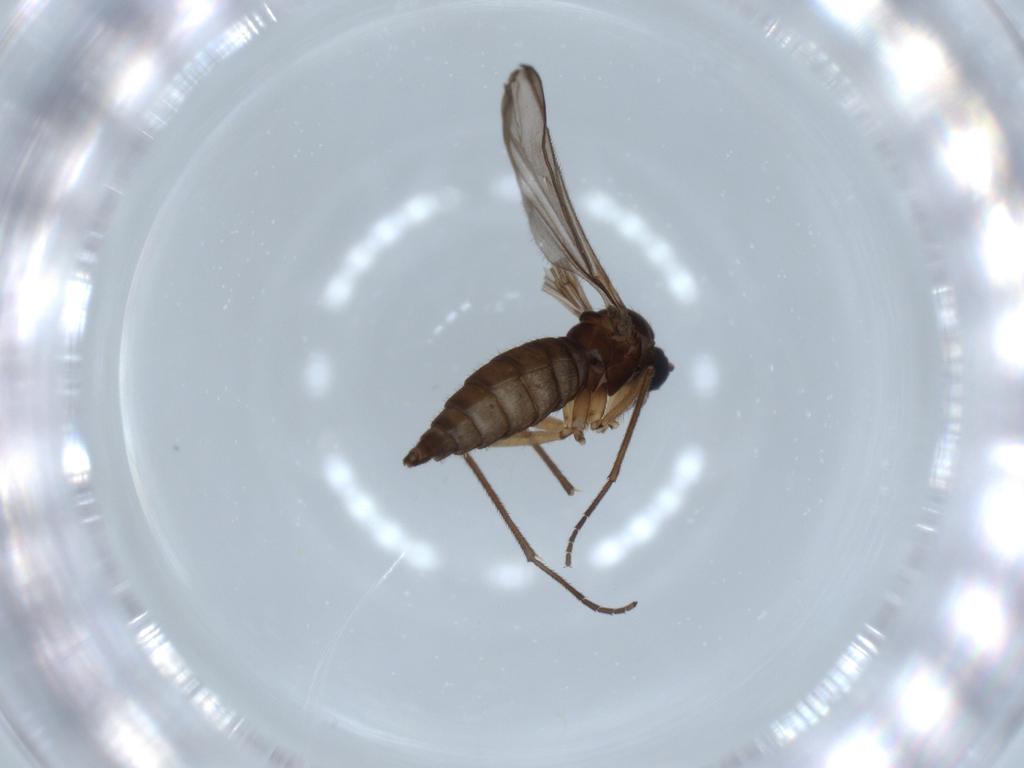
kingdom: Animalia
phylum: Arthropoda
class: Insecta
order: Diptera
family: Sciaridae
